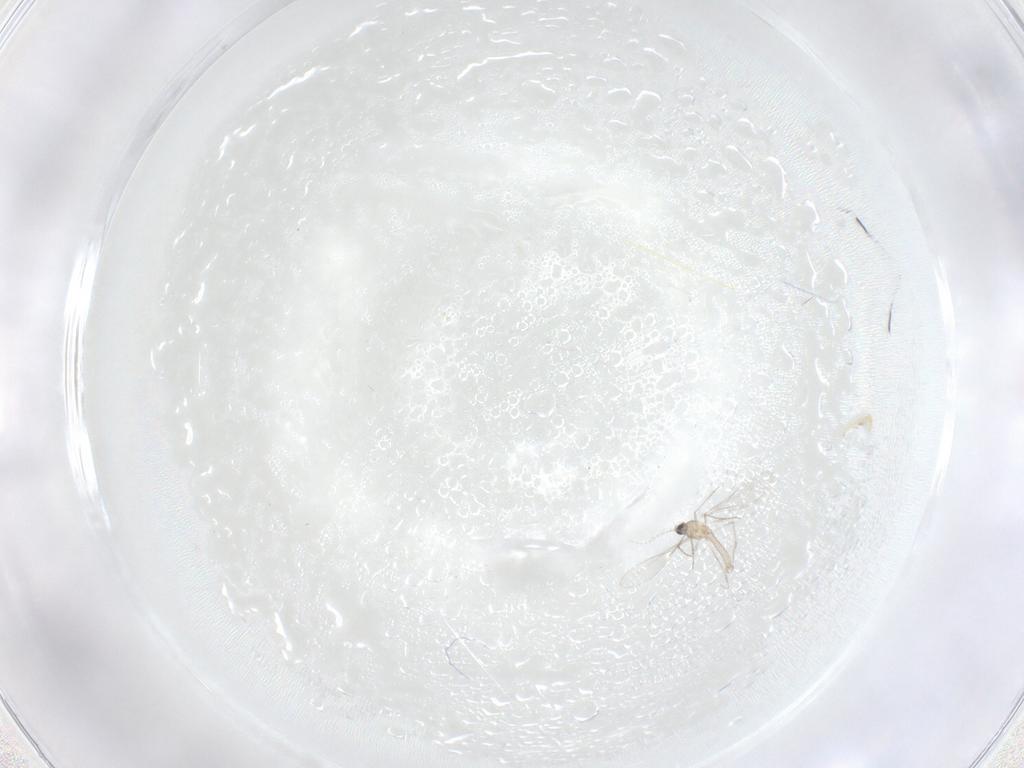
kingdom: Animalia
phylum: Arthropoda
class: Insecta
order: Diptera
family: Cecidomyiidae
